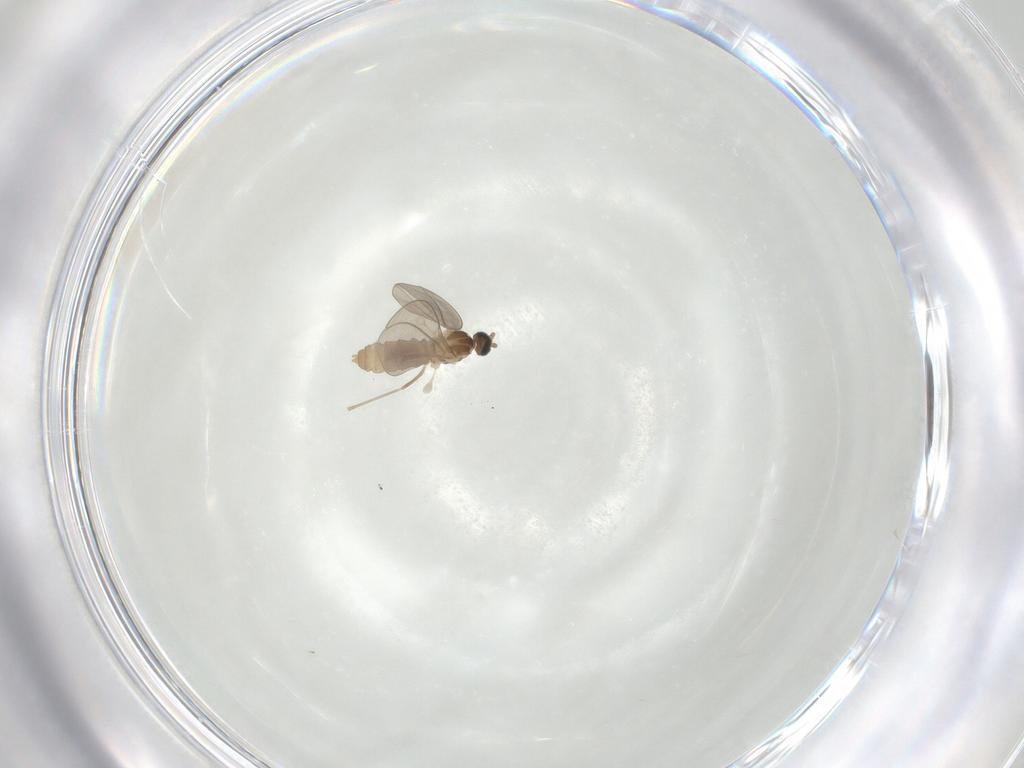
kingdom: Animalia
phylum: Arthropoda
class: Insecta
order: Diptera
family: Cecidomyiidae
